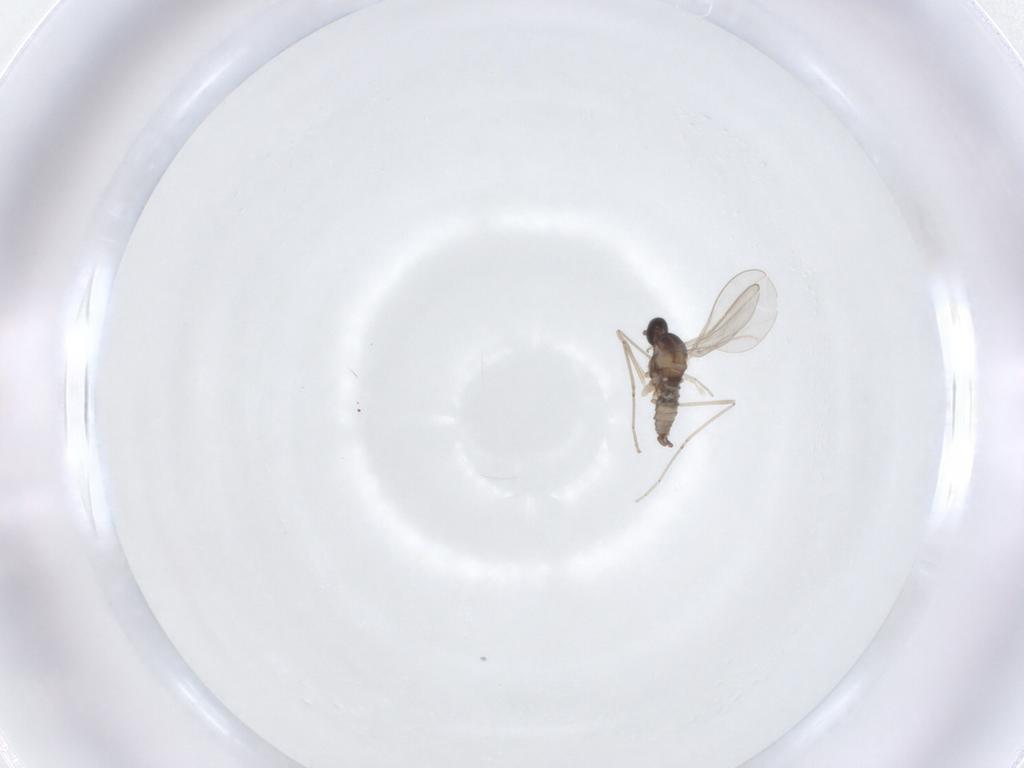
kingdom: Animalia
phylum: Arthropoda
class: Insecta
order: Diptera
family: Cecidomyiidae
